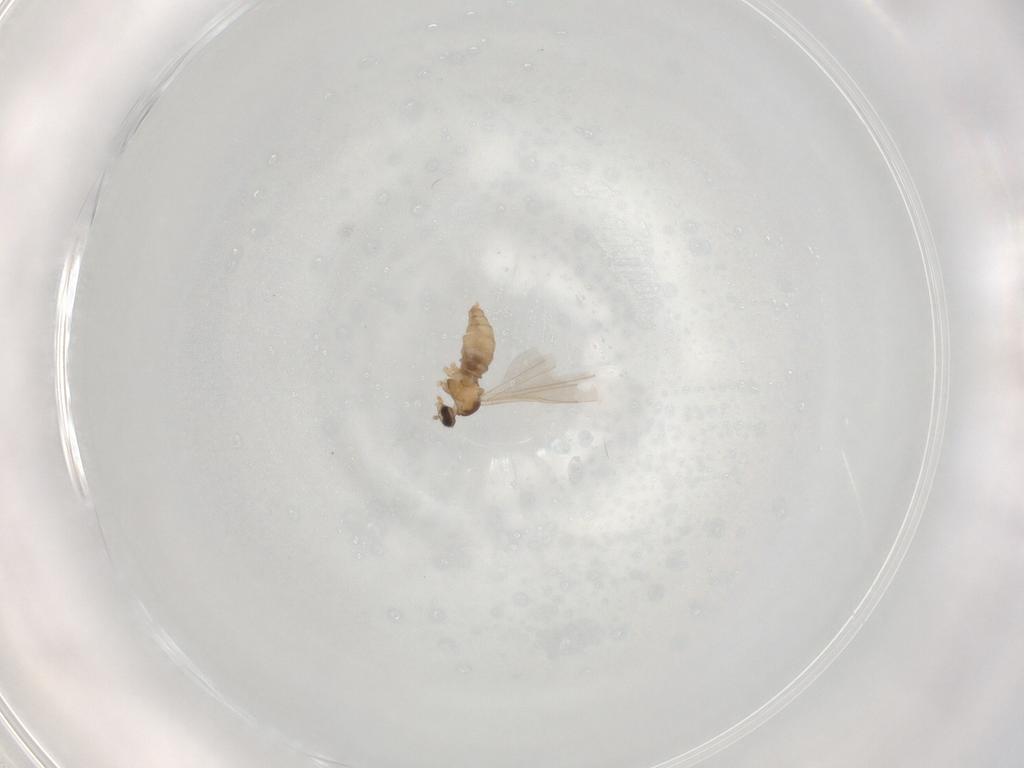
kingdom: Animalia
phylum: Arthropoda
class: Insecta
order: Diptera
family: Cecidomyiidae
